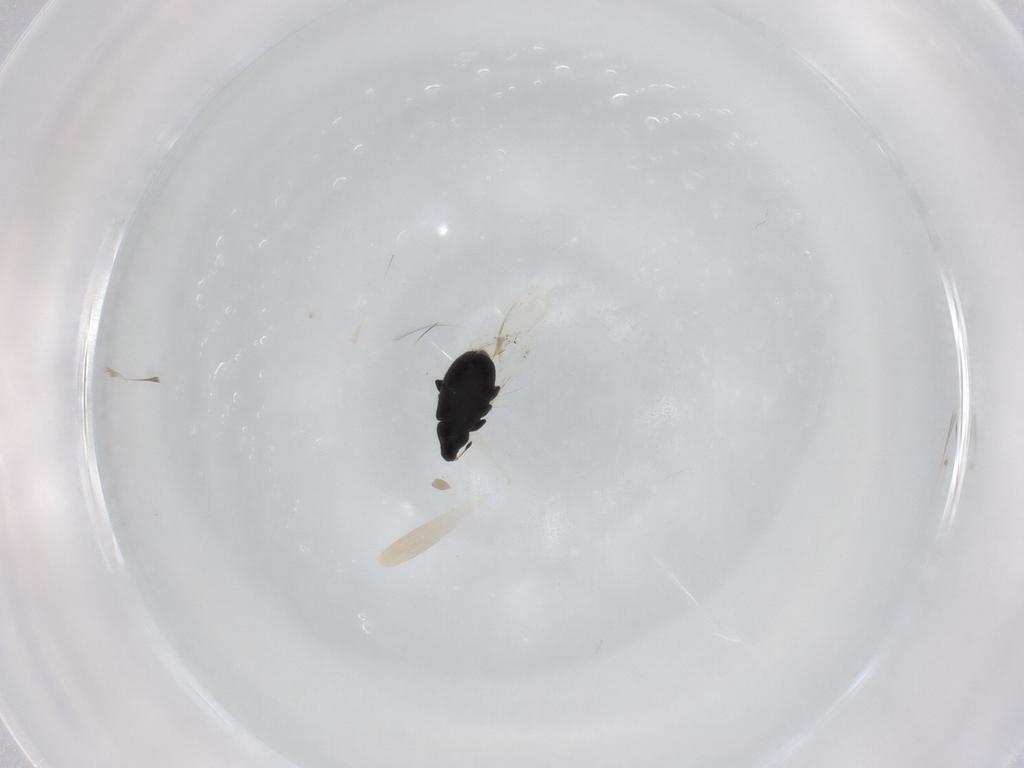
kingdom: Animalia
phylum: Arthropoda
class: Insecta
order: Coleoptera
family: Curculionidae
